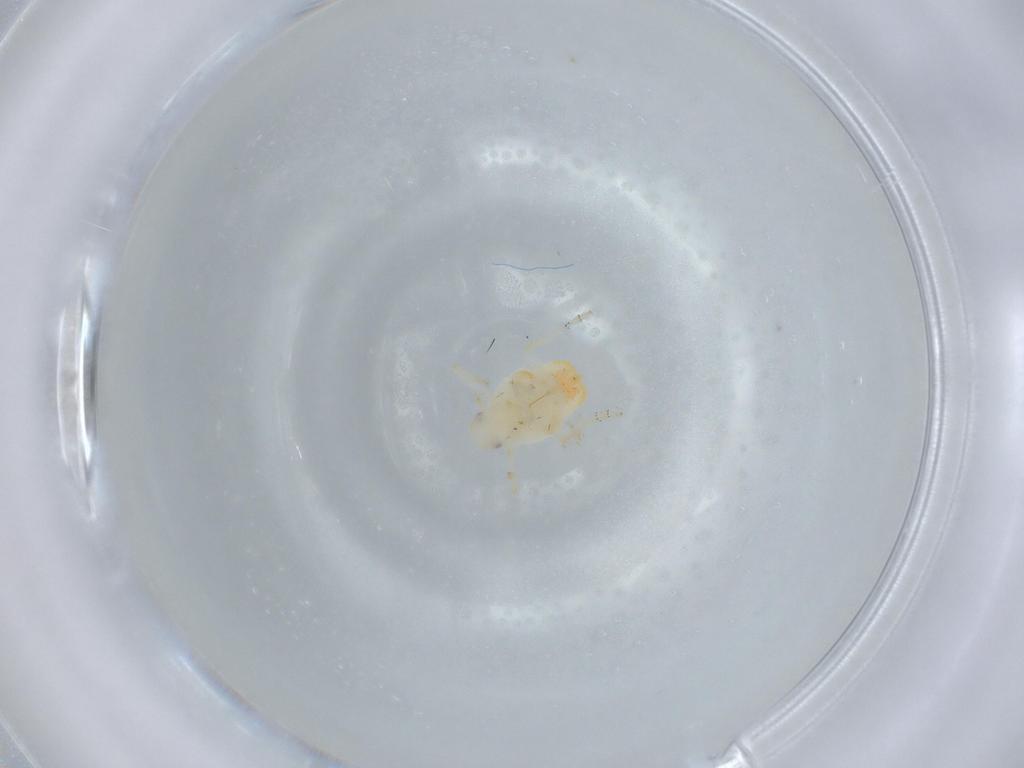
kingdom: Animalia
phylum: Arthropoda
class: Insecta
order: Hemiptera
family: Flatidae
